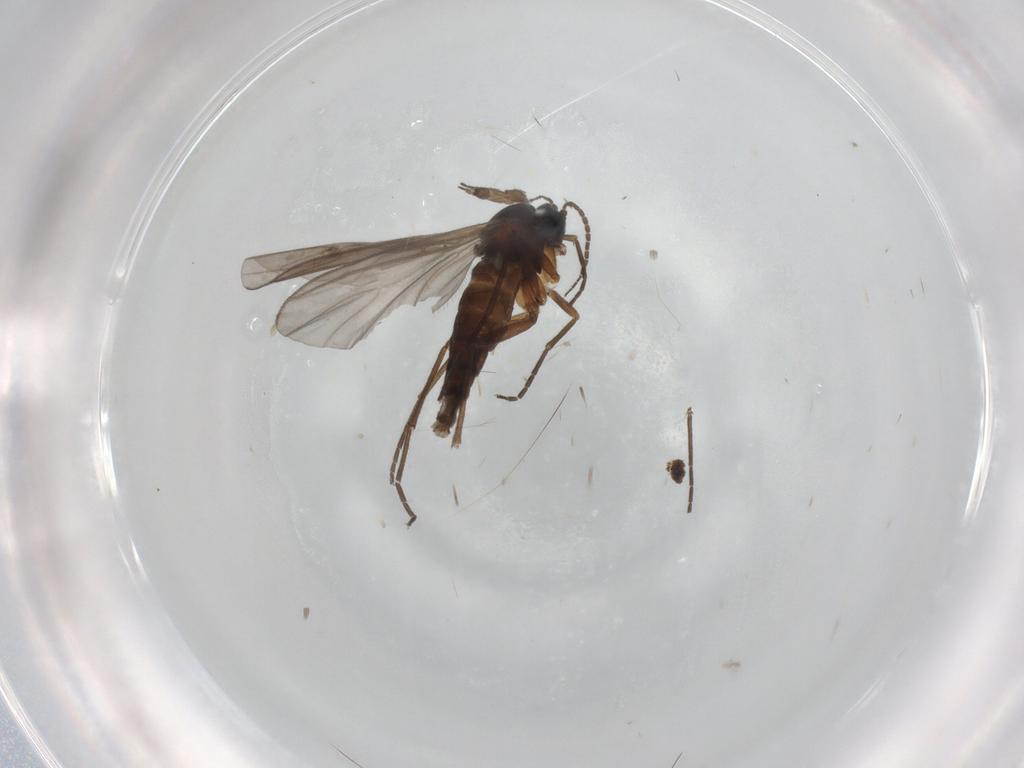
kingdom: Animalia
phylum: Arthropoda
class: Insecta
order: Diptera
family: Sciaridae
